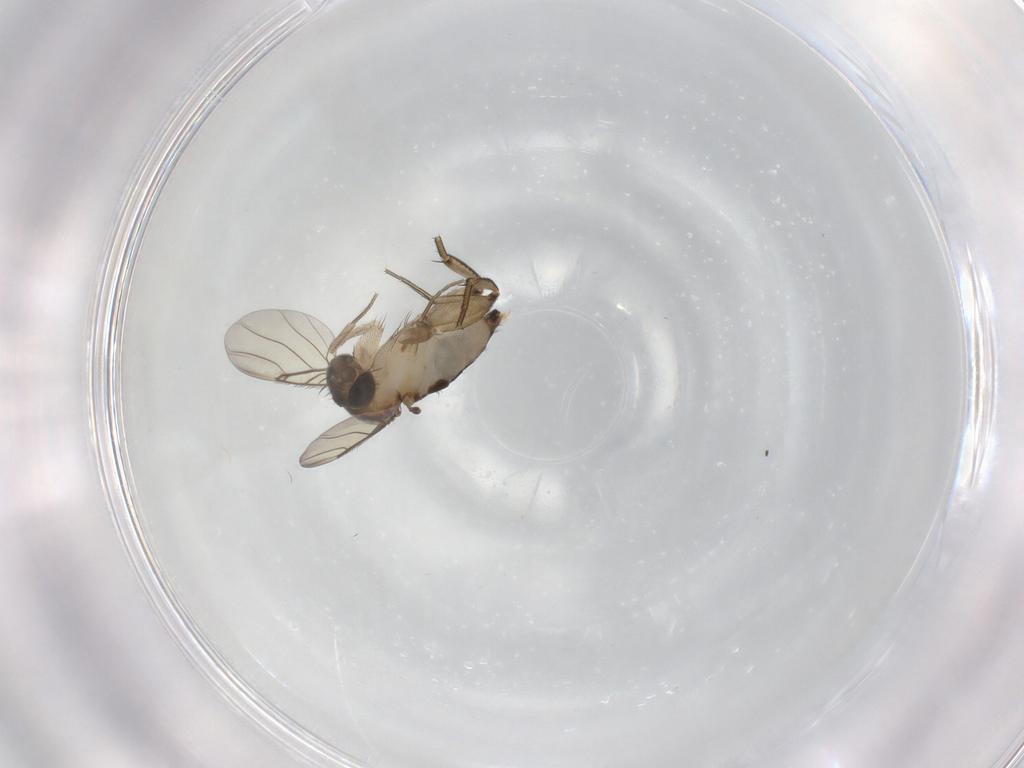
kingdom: Animalia
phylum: Arthropoda
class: Insecta
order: Diptera
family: Phoridae
